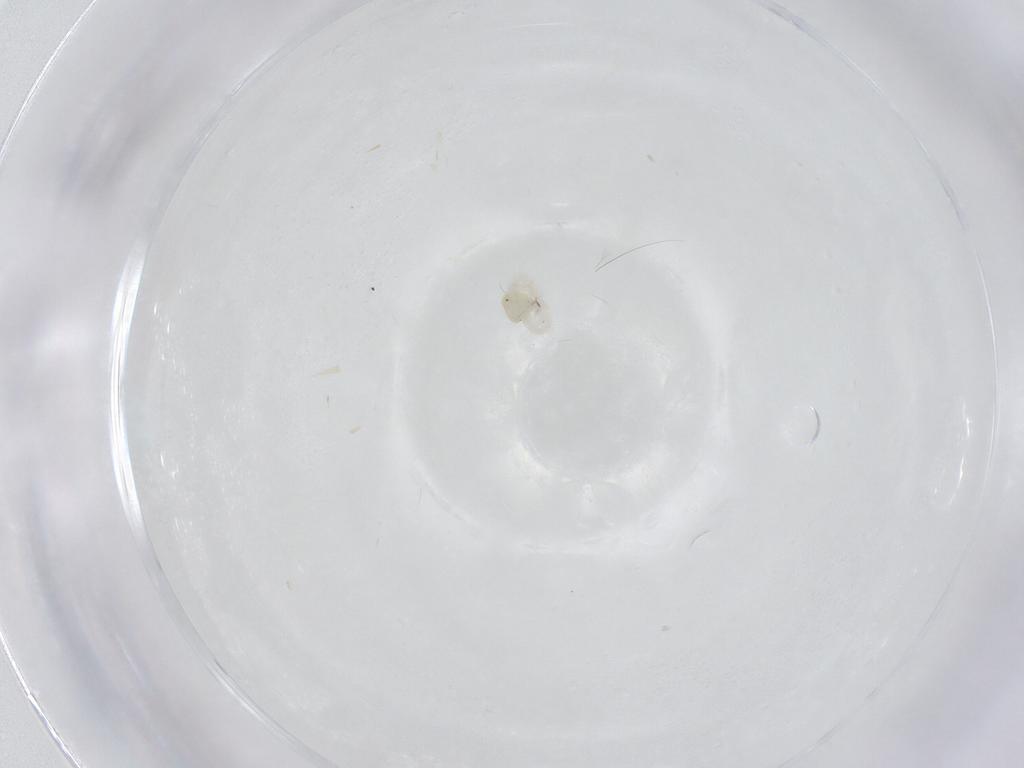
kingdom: Animalia
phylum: Arthropoda
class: Arachnida
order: Trombidiformes
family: Anystidae
